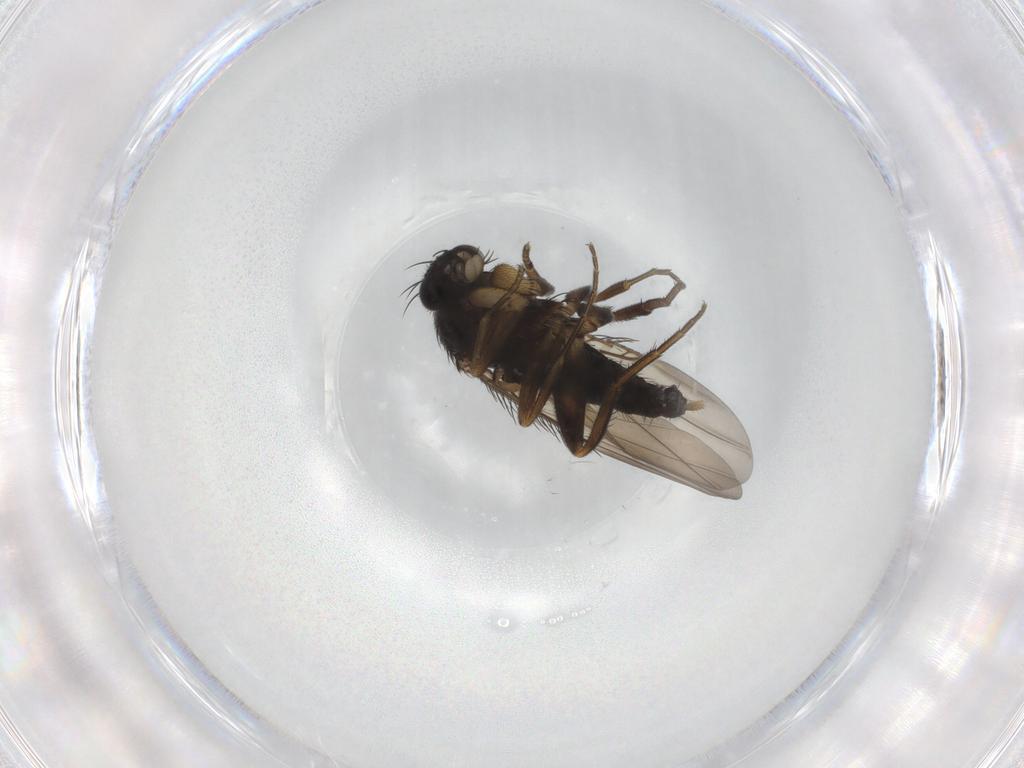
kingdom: Animalia
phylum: Arthropoda
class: Insecta
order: Diptera
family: Phoridae
